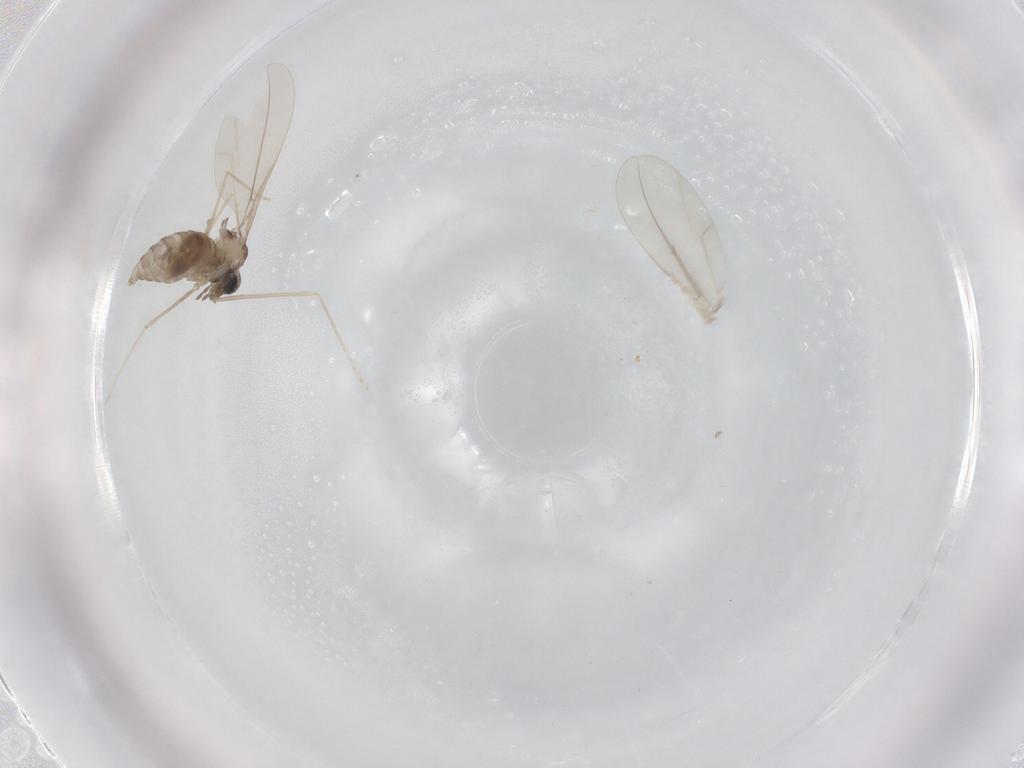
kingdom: Animalia
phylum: Arthropoda
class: Insecta
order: Diptera
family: Cecidomyiidae
